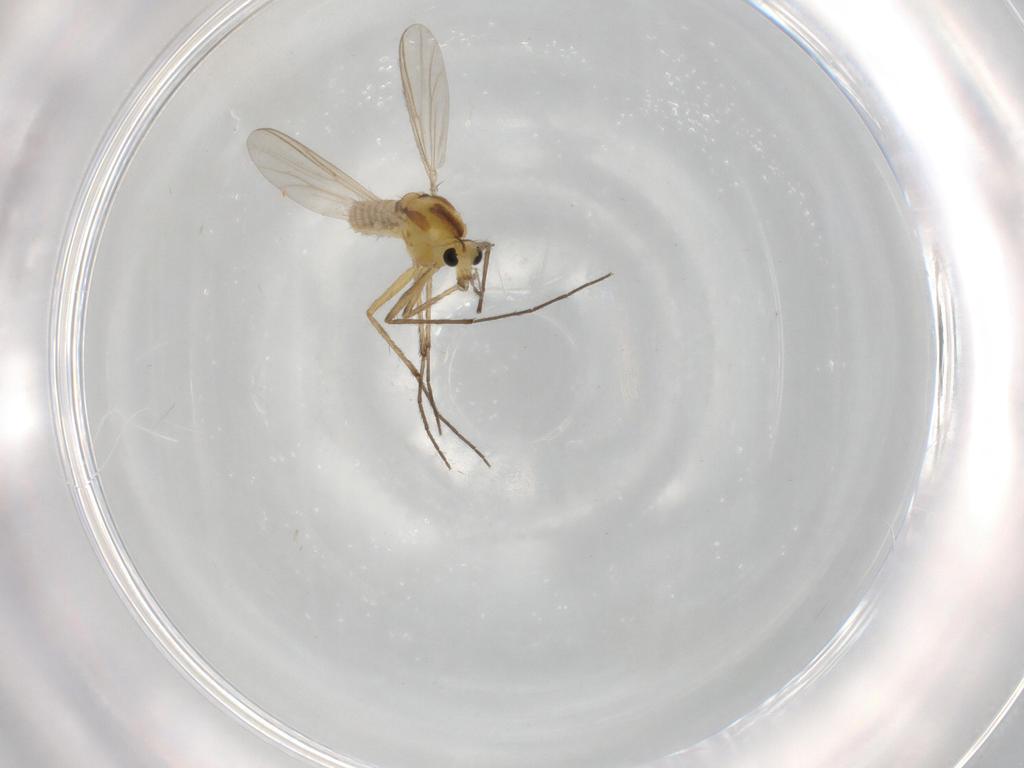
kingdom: Animalia
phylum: Arthropoda
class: Insecta
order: Diptera
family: Chironomidae
